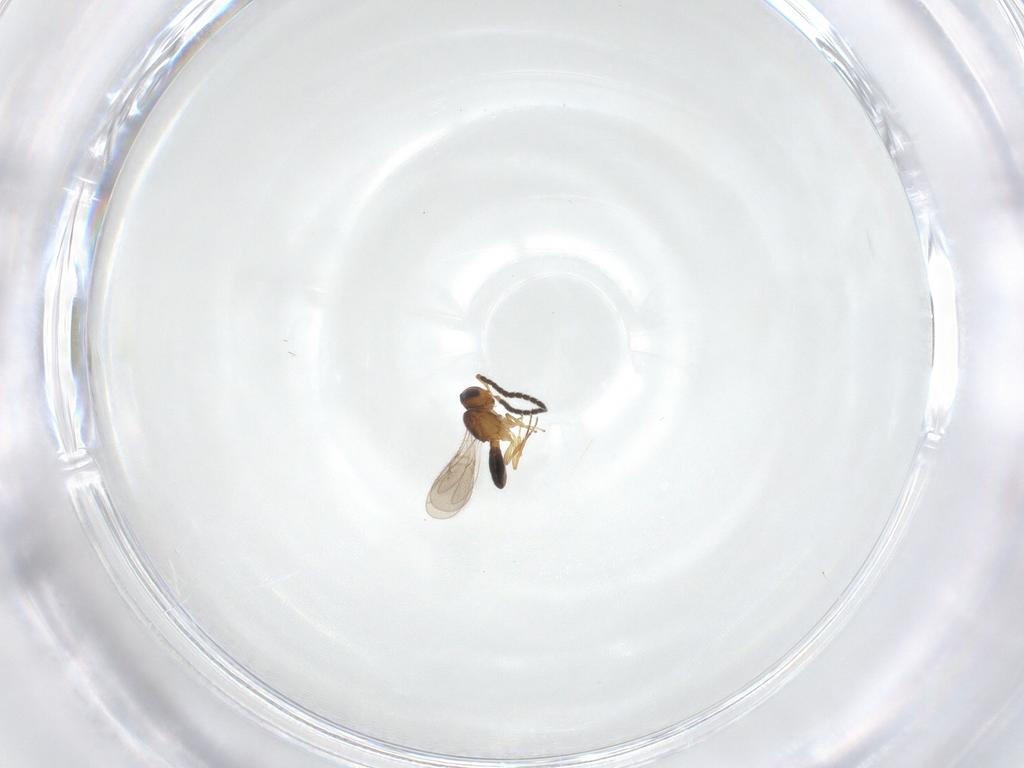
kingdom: Animalia
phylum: Arthropoda
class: Insecta
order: Hymenoptera
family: Scelionidae
